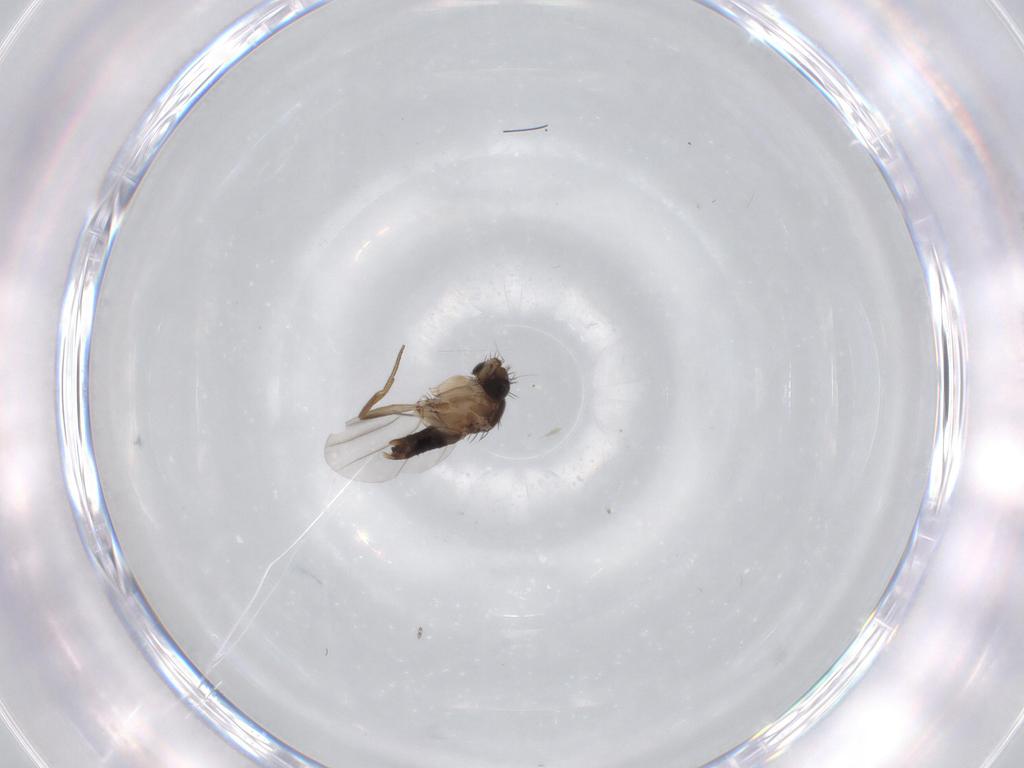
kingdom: Animalia
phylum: Arthropoda
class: Insecta
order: Diptera
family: Phoridae
